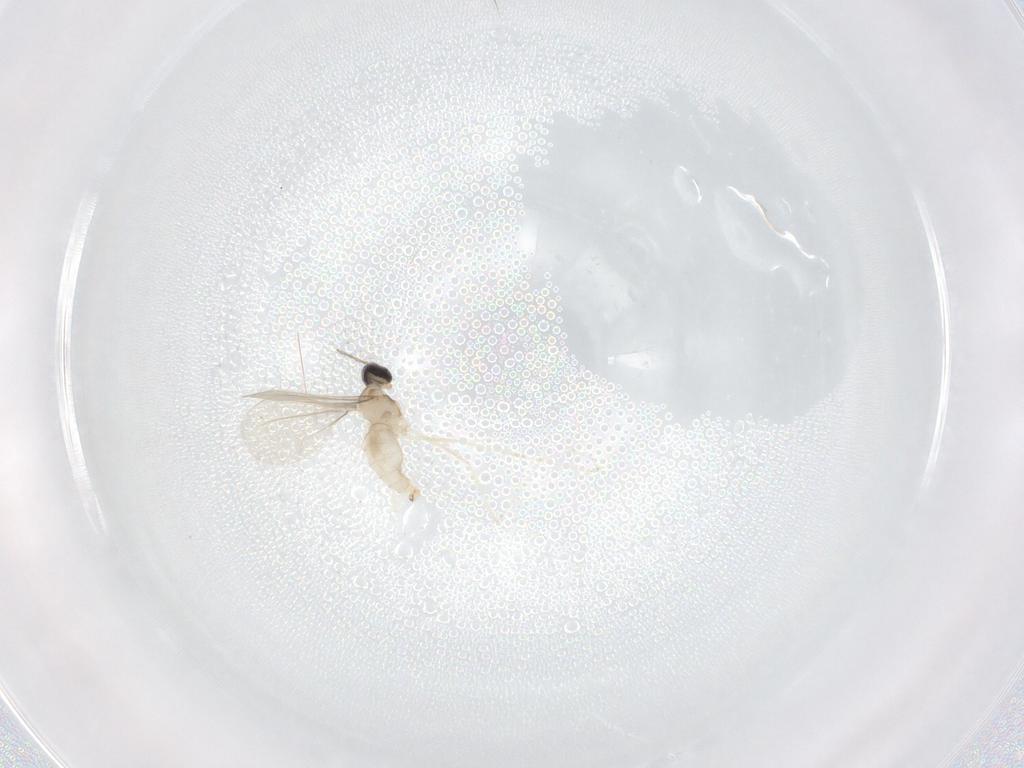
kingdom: Animalia
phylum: Arthropoda
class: Insecta
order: Diptera
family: Cecidomyiidae
